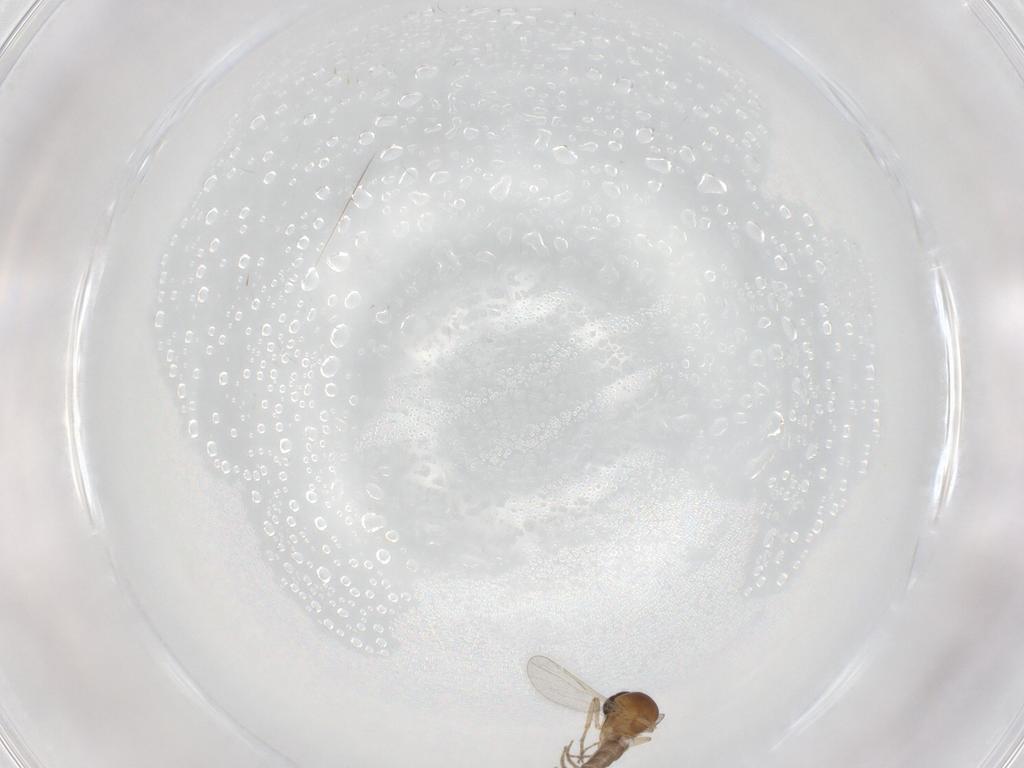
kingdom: Animalia
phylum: Arthropoda
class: Insecta
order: Diptera
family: Ceratopogonidae
